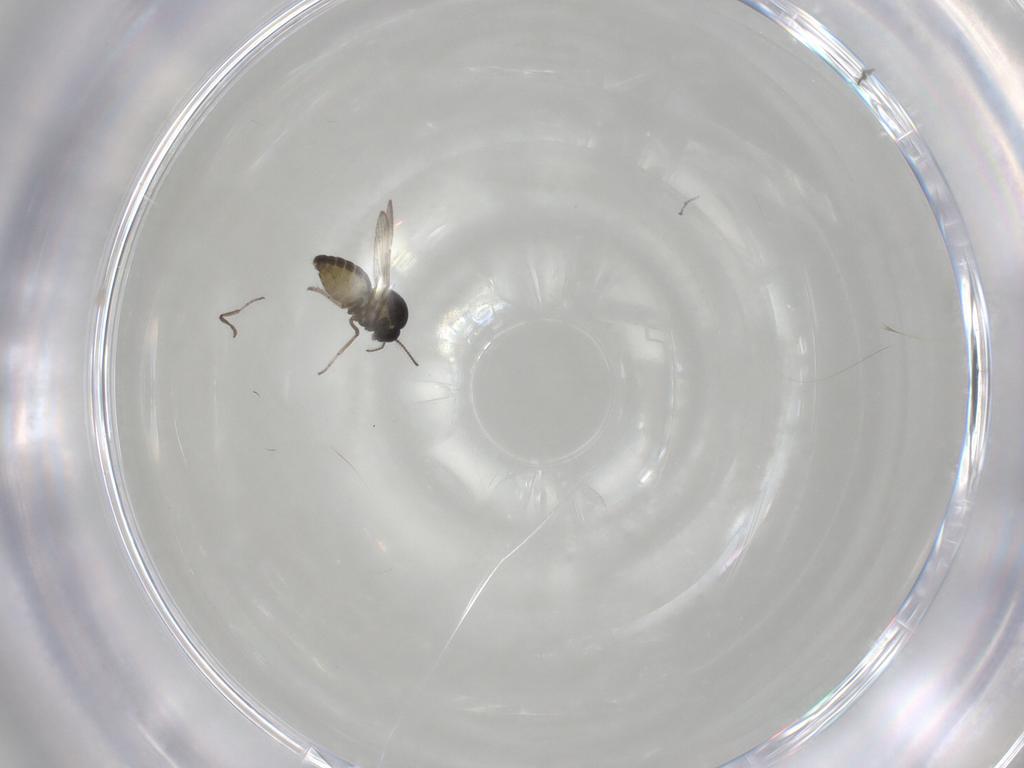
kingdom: Animalia
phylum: Arthropoda
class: Insecta
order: Diptera
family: Ceratopogonidae
